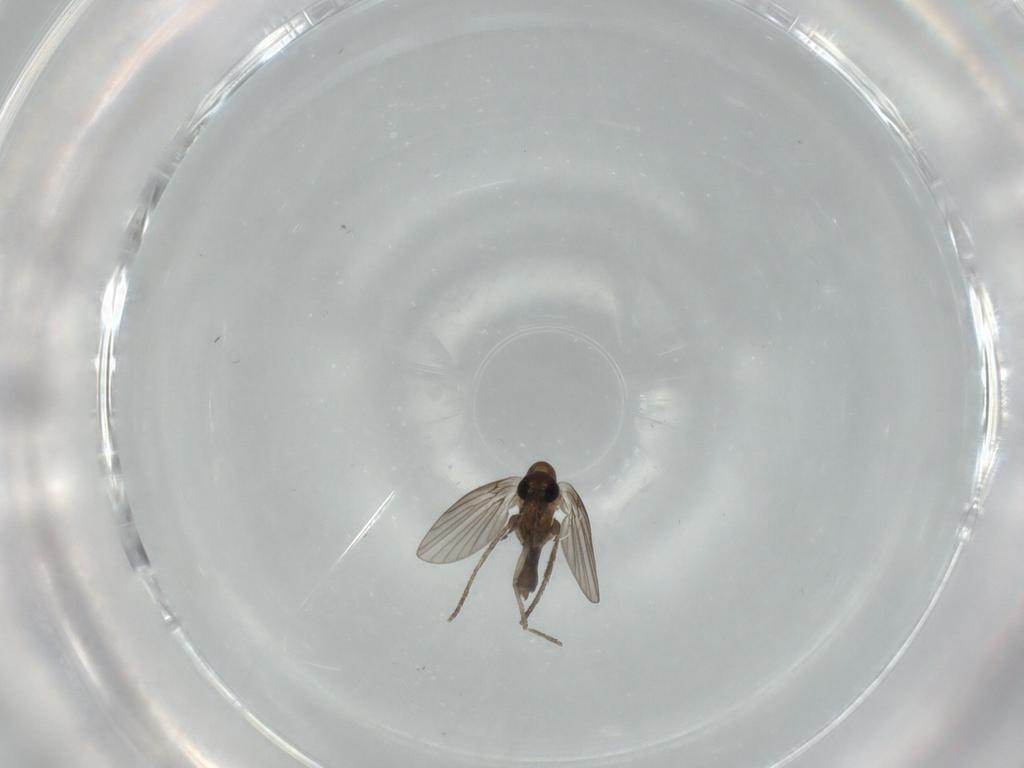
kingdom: Animalia
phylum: Arthropoda
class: Insecta
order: Diptera
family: Psychodidae
